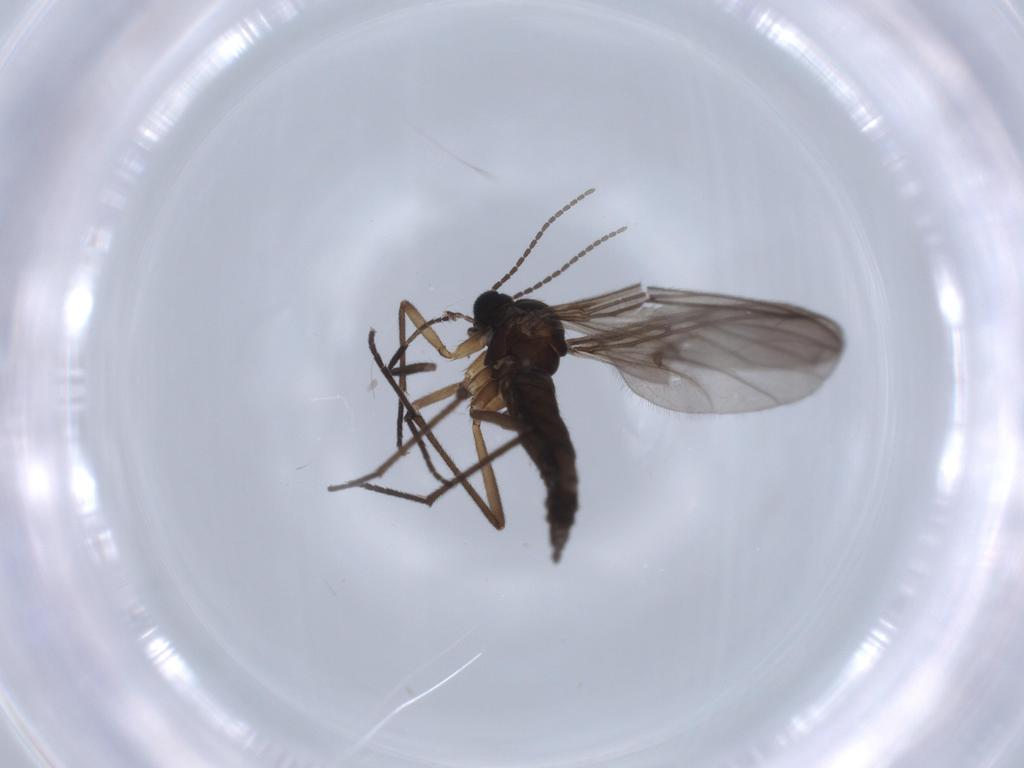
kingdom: Animalia
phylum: Arthropoda
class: Insecta
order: Diptera
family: Sciaridae
